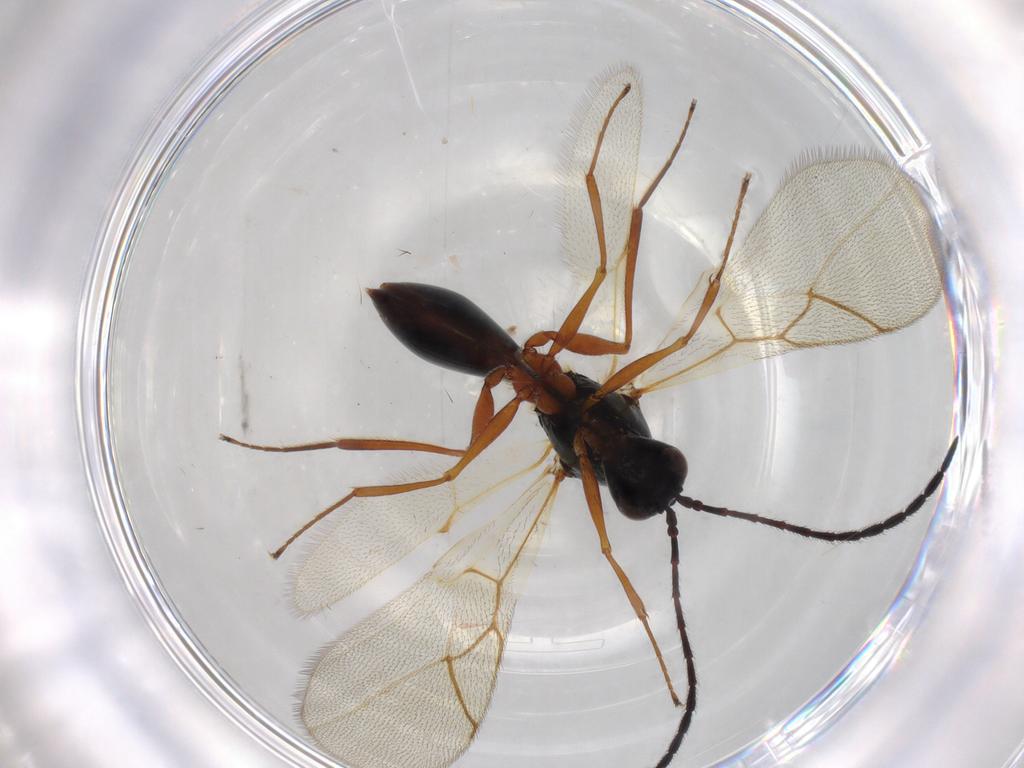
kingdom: Animalia
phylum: Arthropoda
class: Insecta
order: Hymenoptera
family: Figitidae
